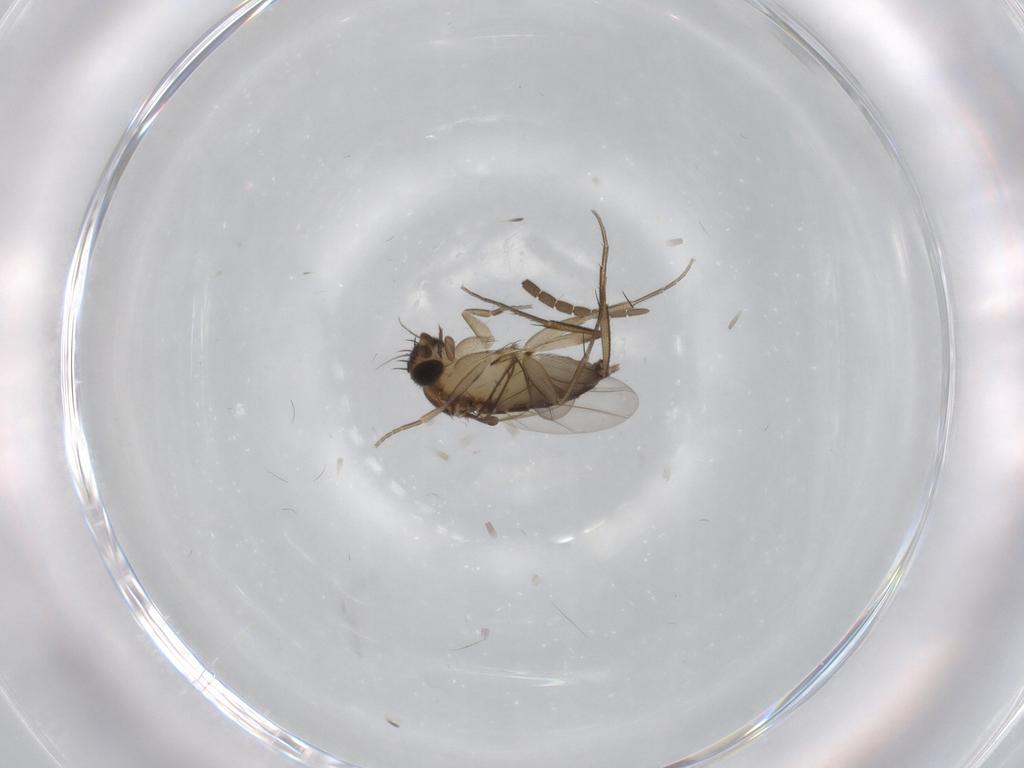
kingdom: Animalia
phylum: Arthropoda
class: Insecta
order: Diptera
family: Phoridae
